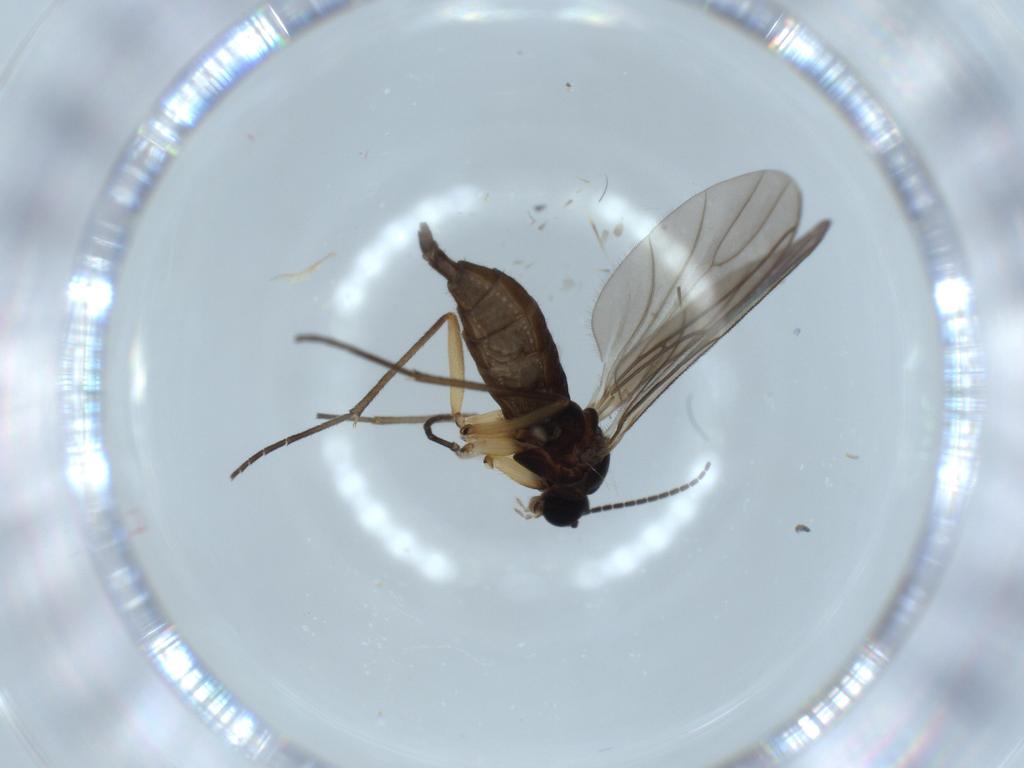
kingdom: Animalia
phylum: Arthropoda
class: Insecta
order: Diptera
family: Sciaridae
